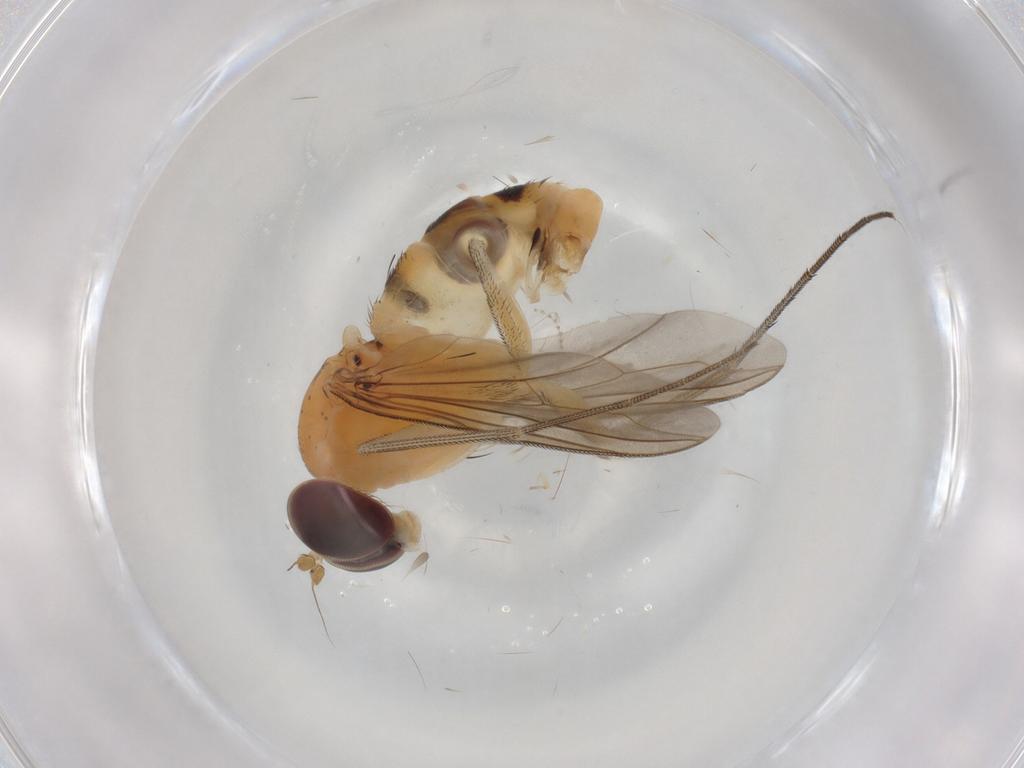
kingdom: Animalia
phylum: Arthropoda
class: Insecta
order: Diptera
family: Dolichopodidae
